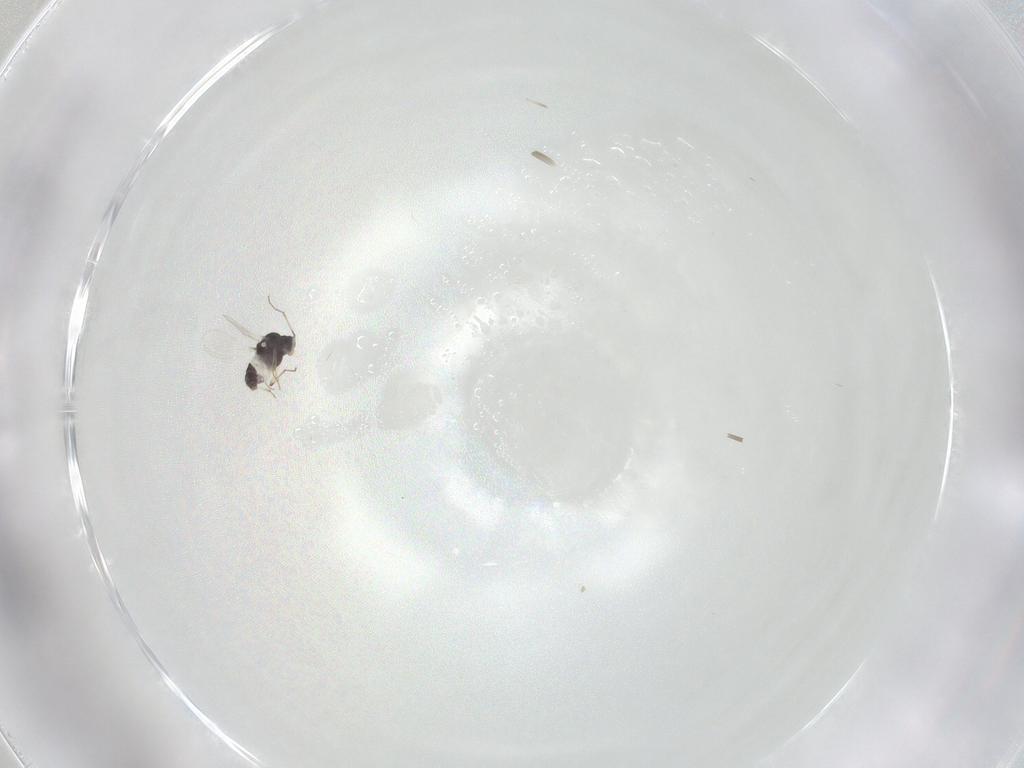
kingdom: Animalia
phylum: Arthropoda
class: Insecta
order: Diptera
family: Chironomidae
